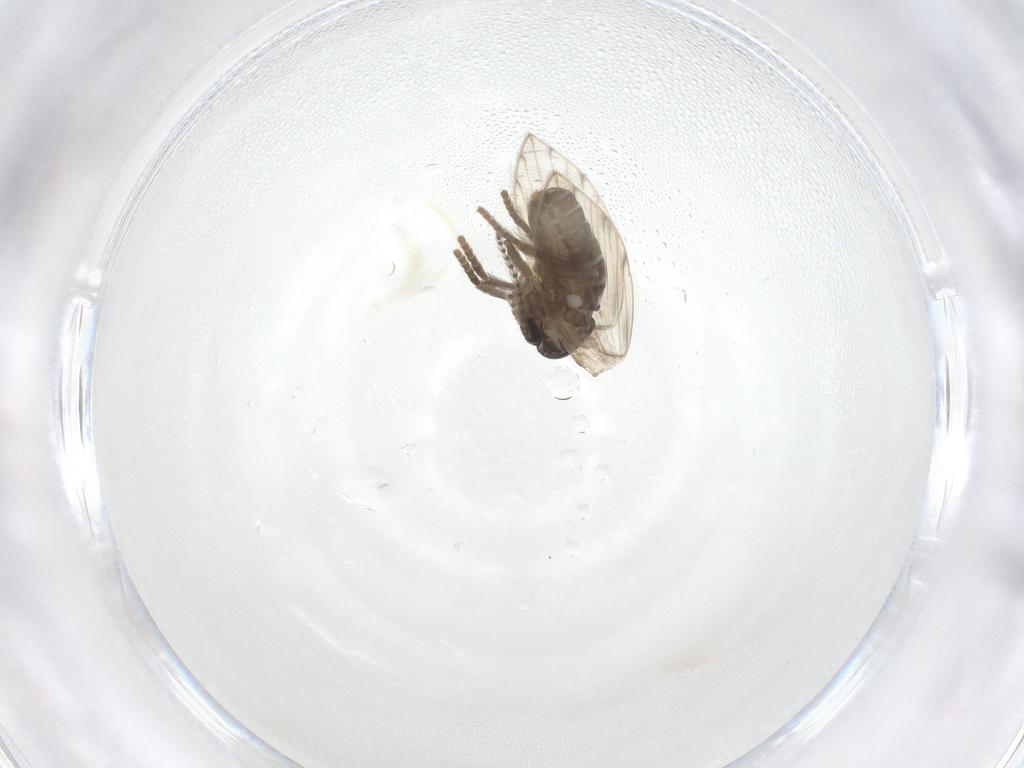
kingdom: Animalia
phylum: Arthropoda
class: Insecta
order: Diptera
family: Psychodidae
